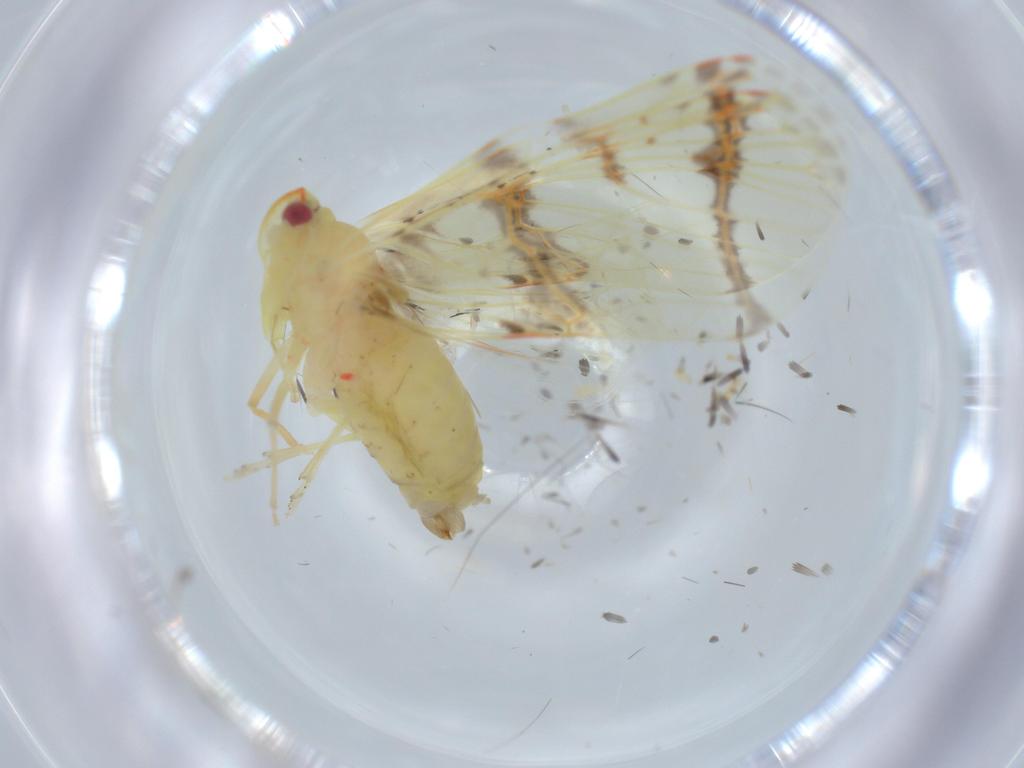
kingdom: Animalia
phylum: Arthropoda
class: Insecta
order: Hemiptera
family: Derbidae
